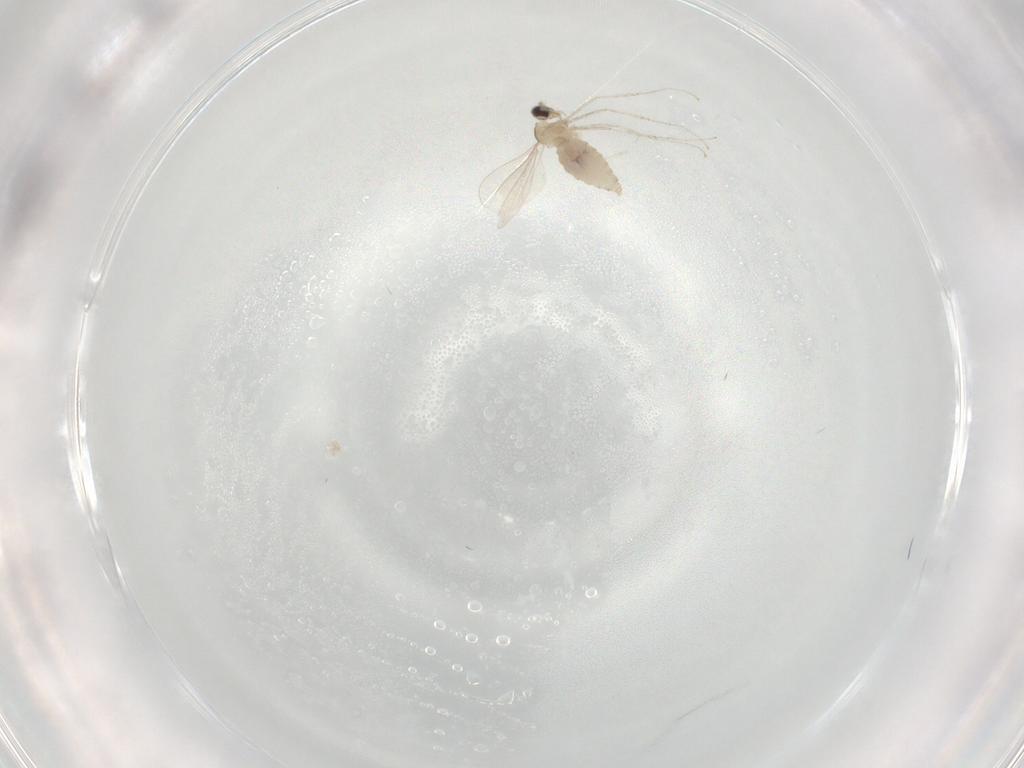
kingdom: Animalia
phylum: Arthropoda
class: Insecta
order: Diptera
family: Cecidomyiidae
